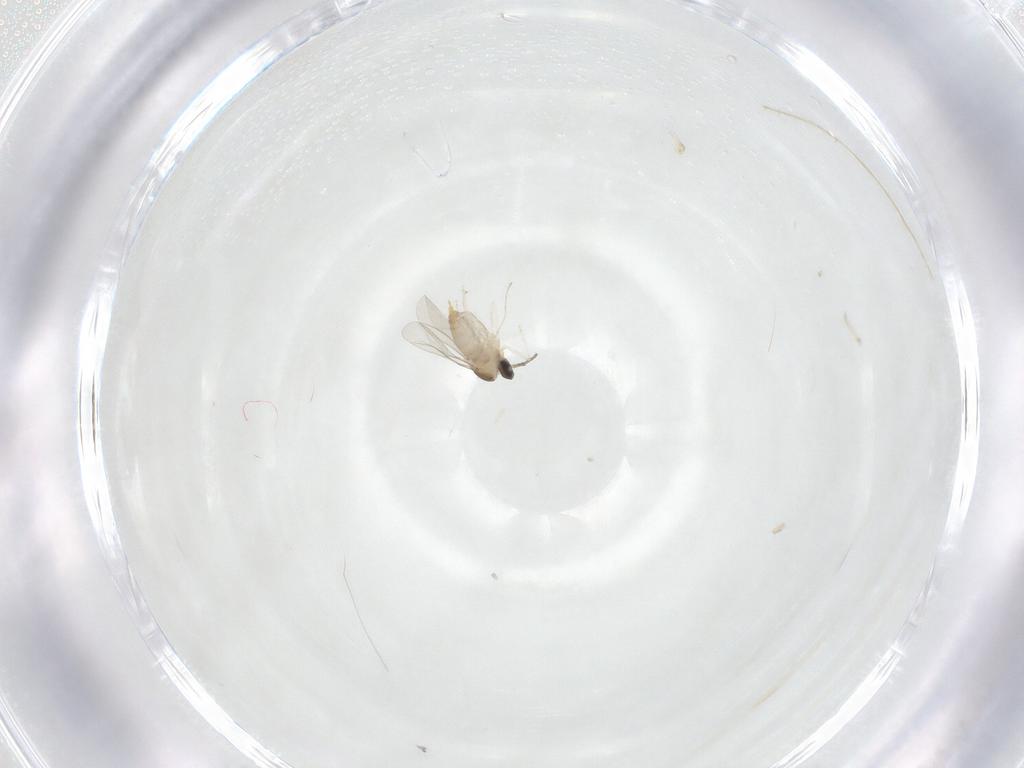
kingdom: Animalia
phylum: Arthropoda
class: Insecta
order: Diptera
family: Cecidomyiidae
